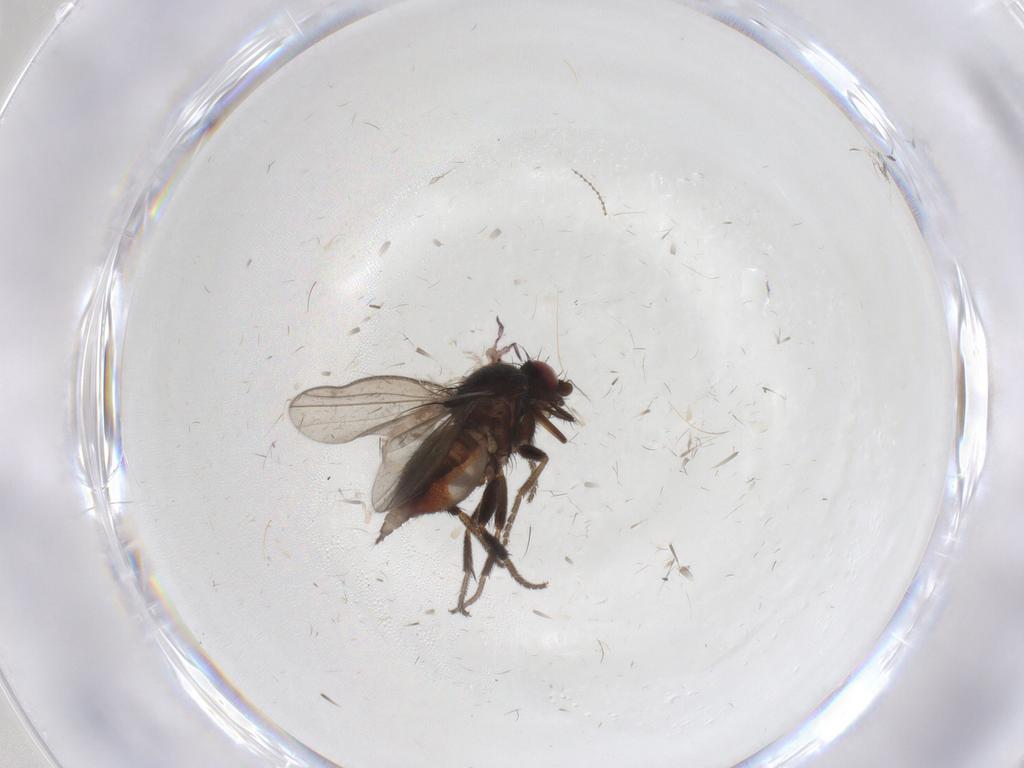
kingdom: Animalia
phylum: Arthropoda
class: Insecta
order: Diptera
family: Milichiidae
